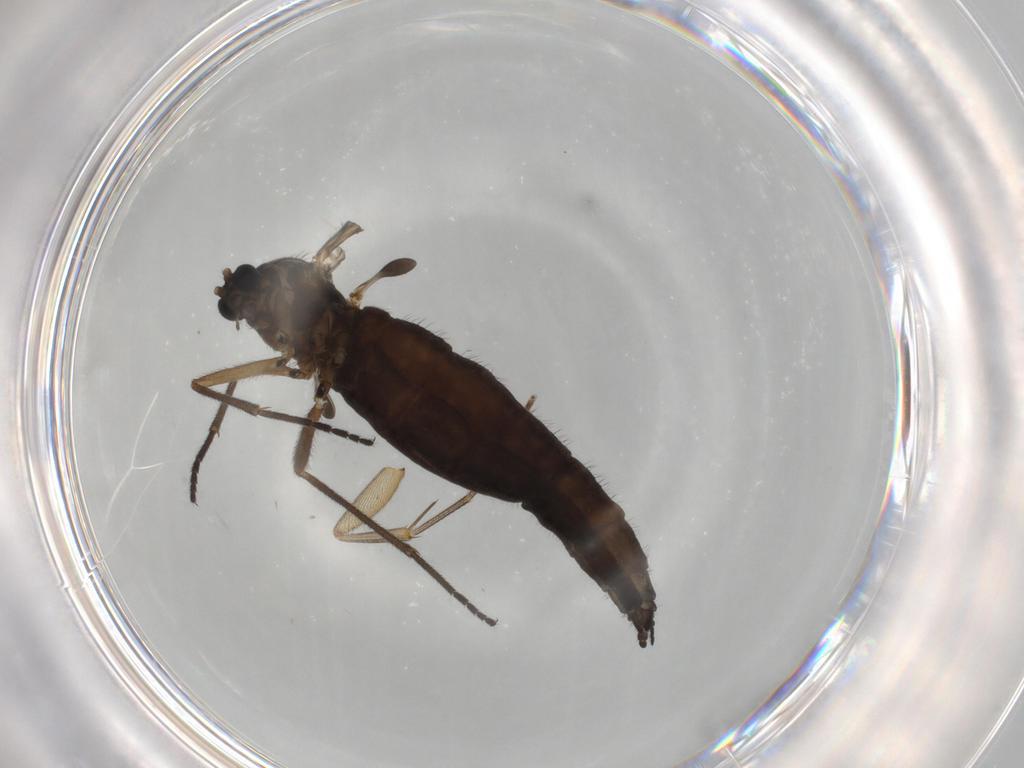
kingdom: Animalia
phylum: Arthropoda
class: Insecta
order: Diptera
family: Sciaridae
